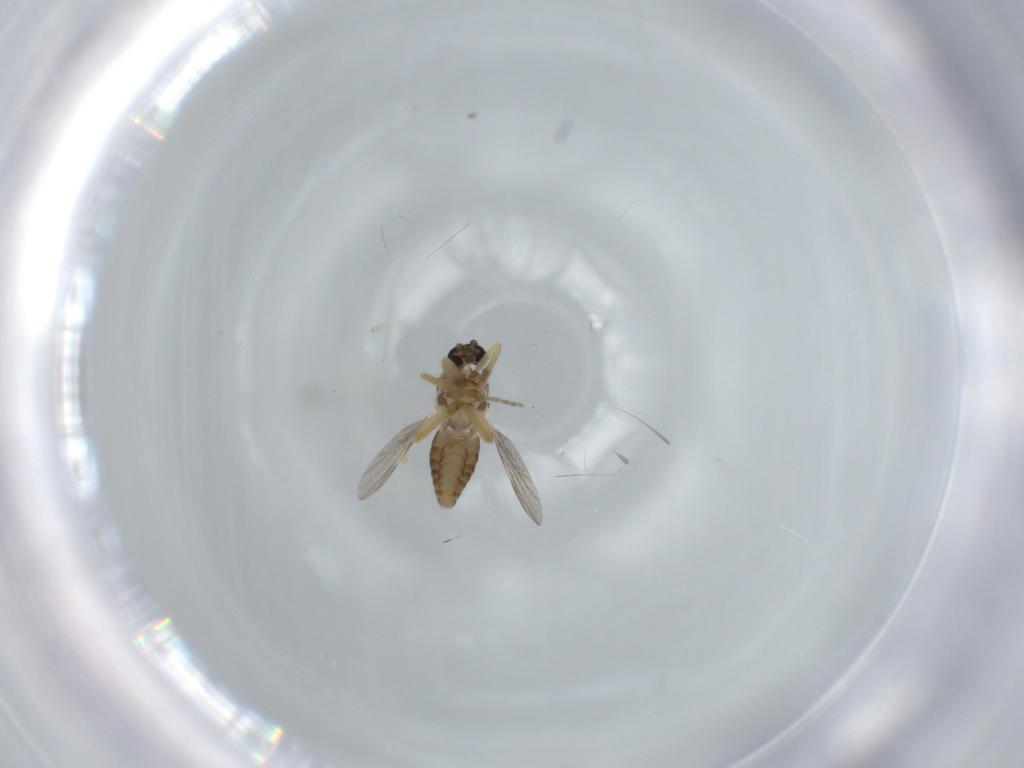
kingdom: Animalia
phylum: Arthropoda
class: Insecta
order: Diptera
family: Ceratopogonidae
